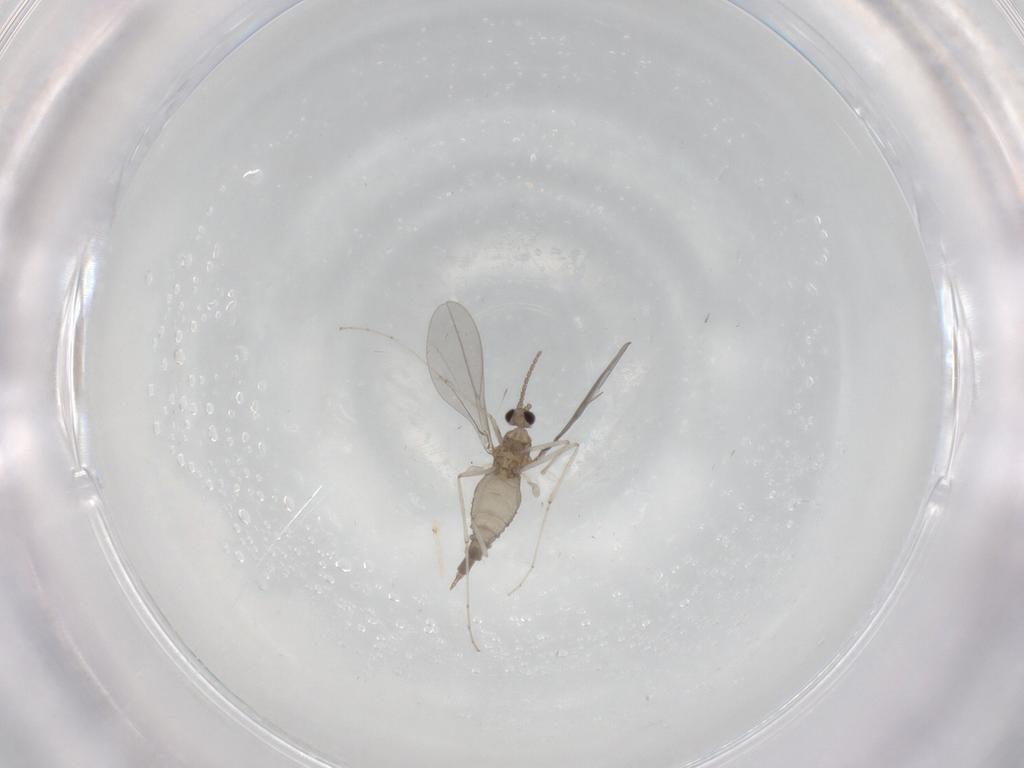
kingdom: Animalia
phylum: Arthropoda
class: Insecta
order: Diptera
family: Cecidomyiidae
